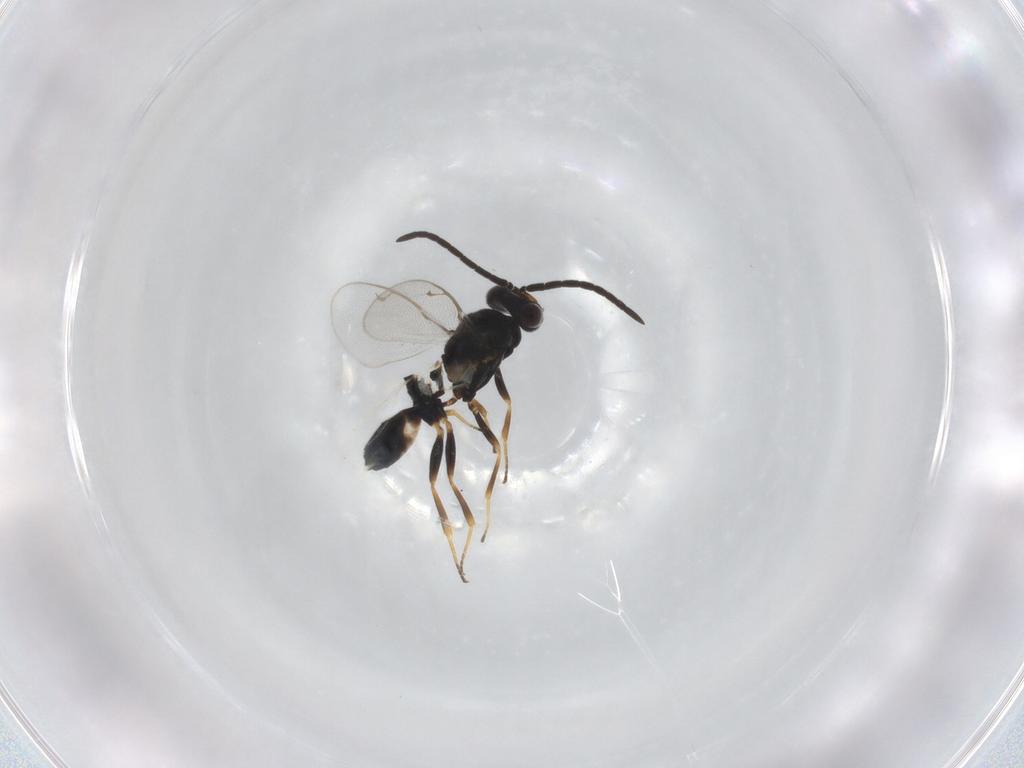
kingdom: Animalia
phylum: Arthropoda
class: Insecta
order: Hymenoptera
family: Eupelmidae
